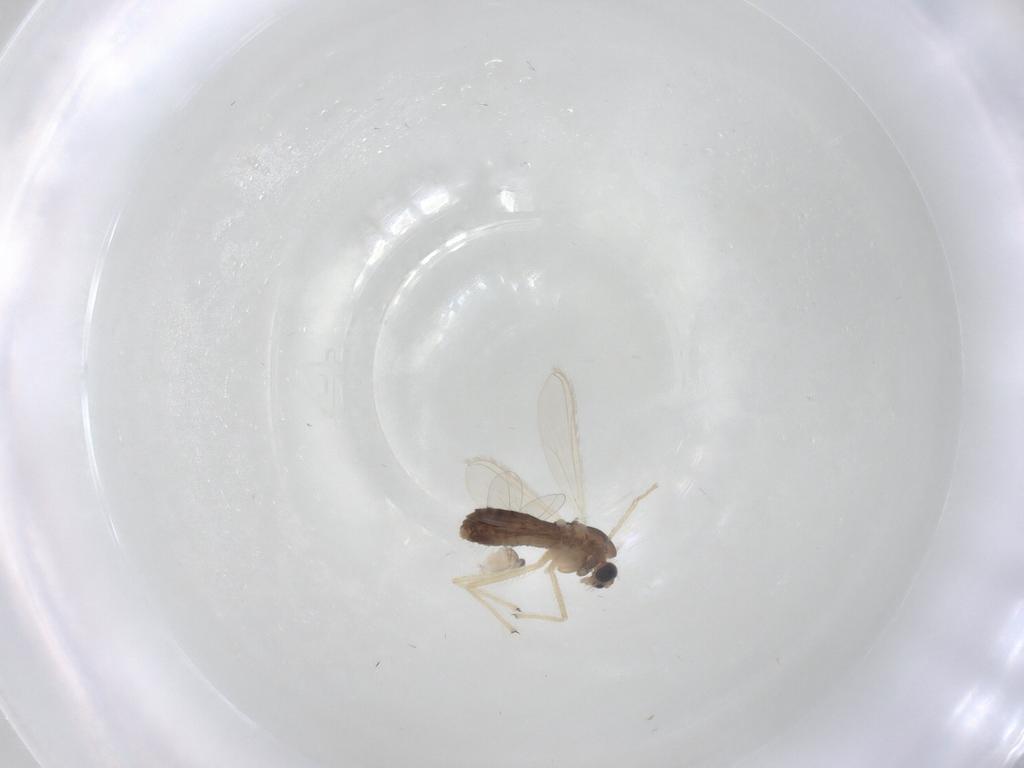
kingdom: Animalia
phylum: Arthropoda
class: Insecta
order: Diptera
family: Chironomidae
